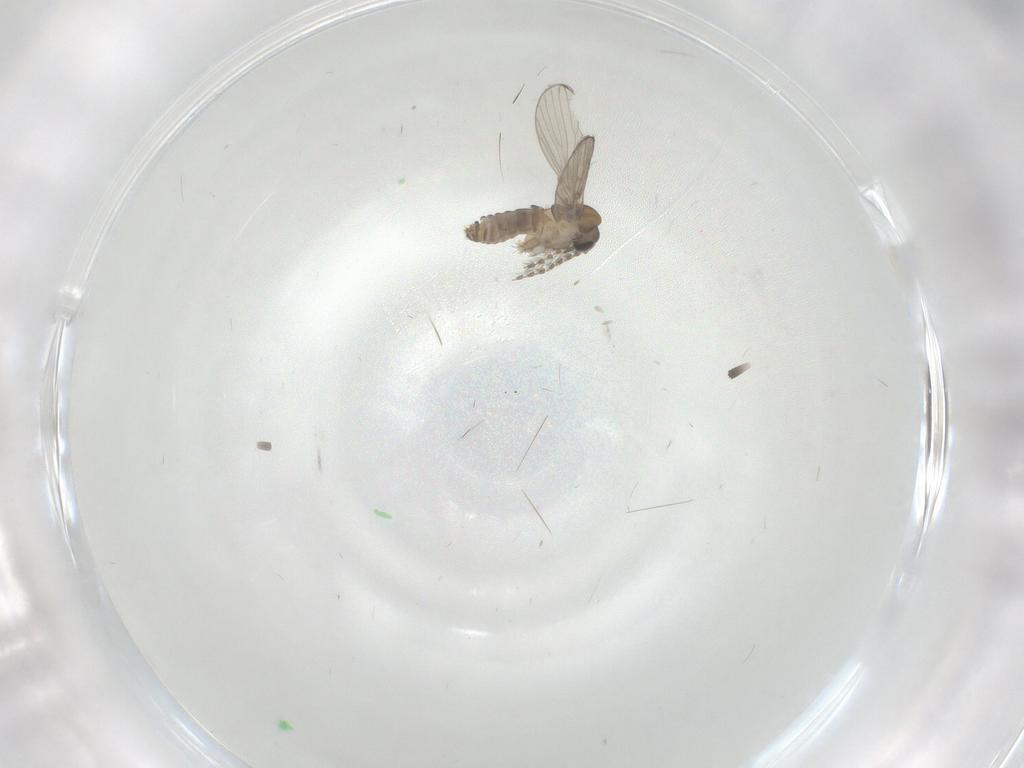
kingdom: Animalia
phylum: Arthropoda
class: Insecta
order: Diptera
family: Psychodidae
